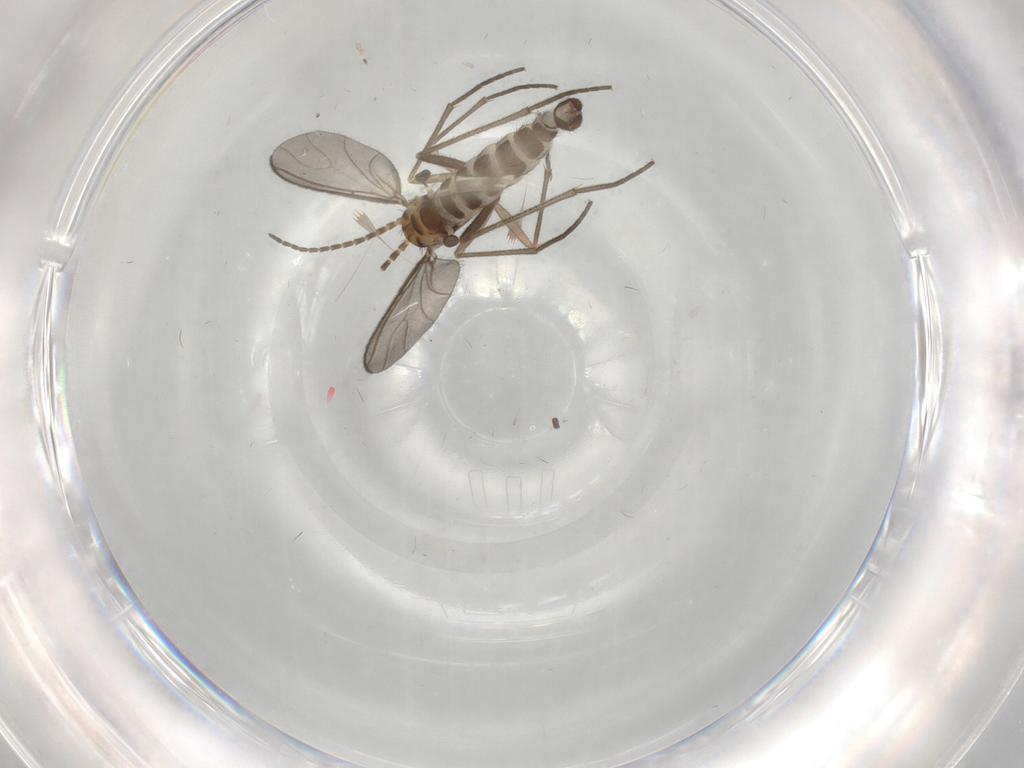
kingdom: Animalia
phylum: Arthropoda
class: Insecta
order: Diptera
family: Limoniidae
